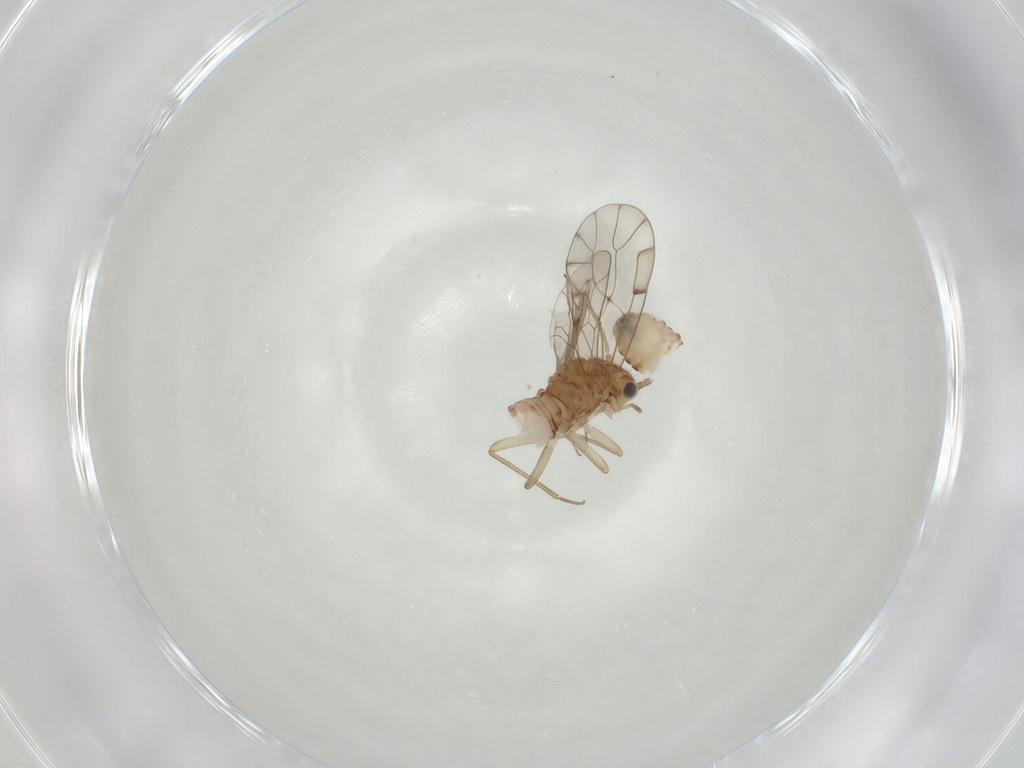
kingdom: Animalia
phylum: Arthropoda
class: Insecta
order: Psocodea
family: Ectopsocidae
